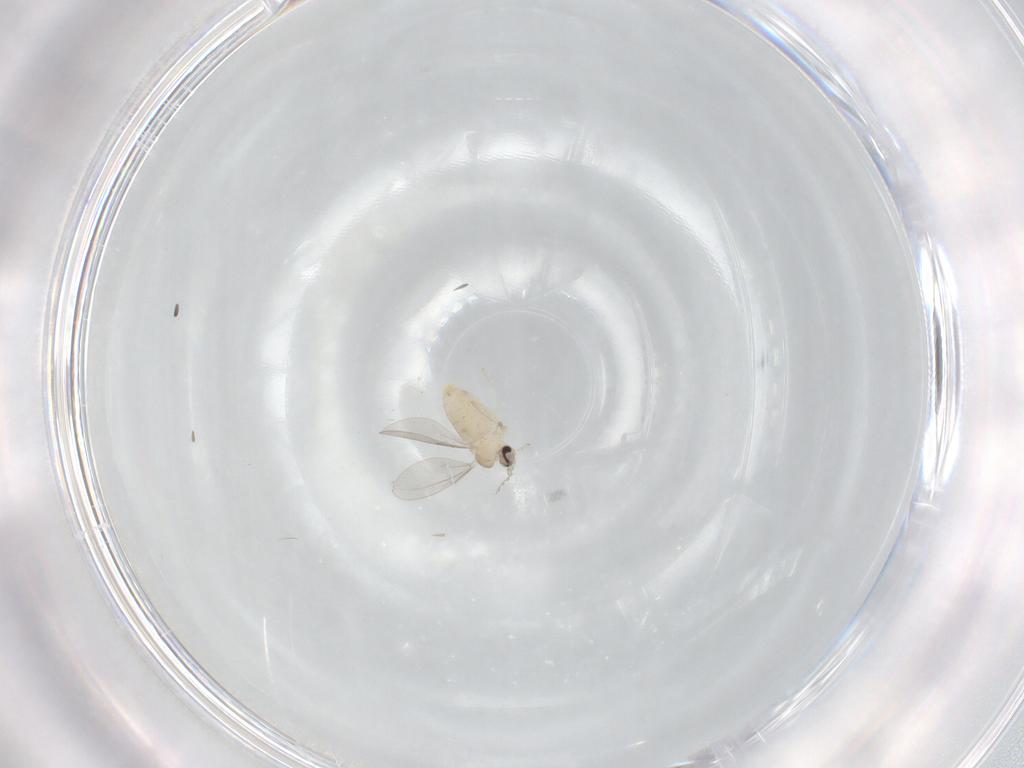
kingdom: Animalia
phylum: Arthropoda
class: Insecta
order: Diptera
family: Cecidomyiidae
